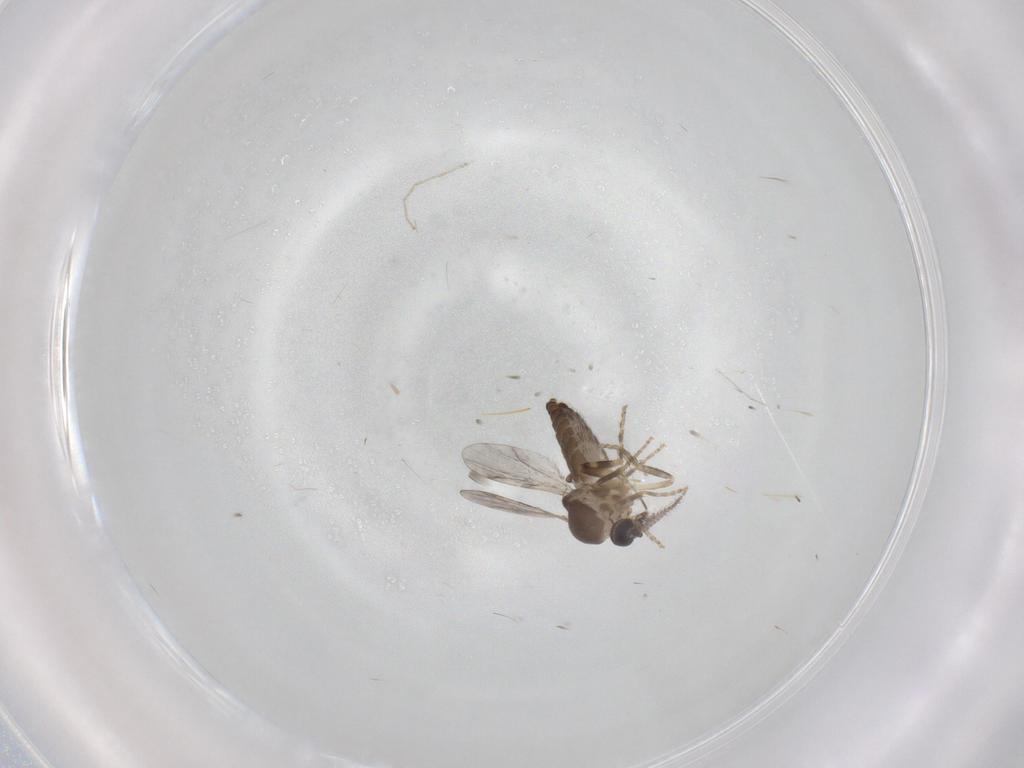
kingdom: Animalia
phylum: Arthropoda
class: Insecta
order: Diptera
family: Ceratopogonidae
